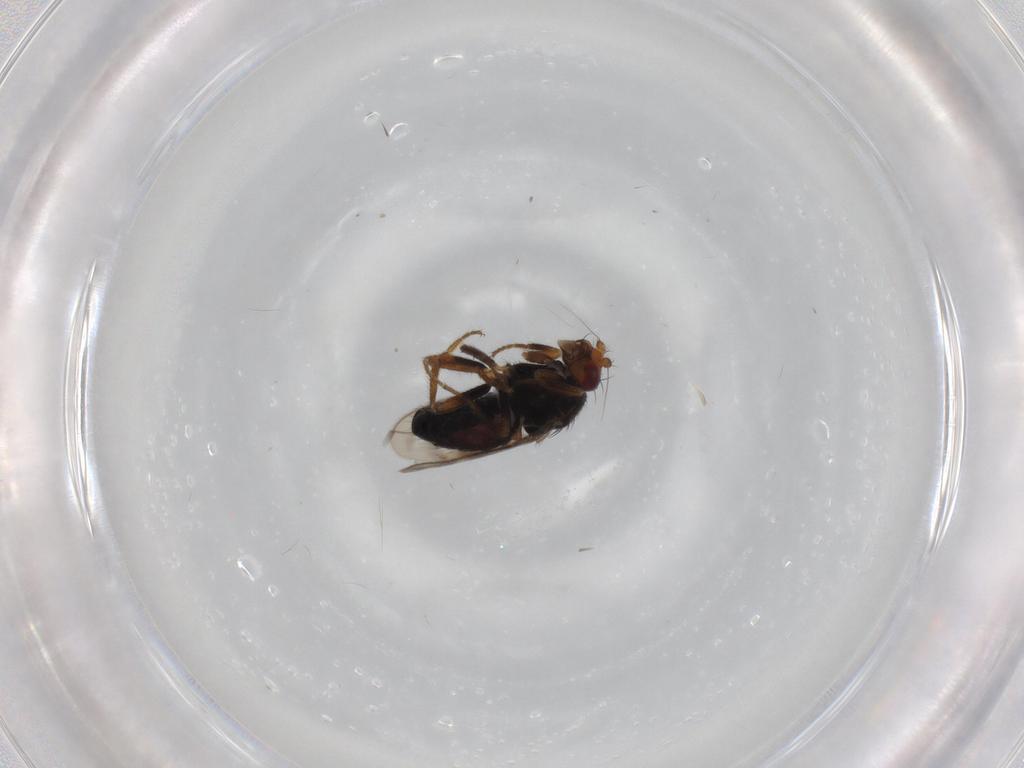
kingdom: Animalia
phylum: Arthropoda
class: Insecta
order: Diptera
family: Sphaeroceridae
